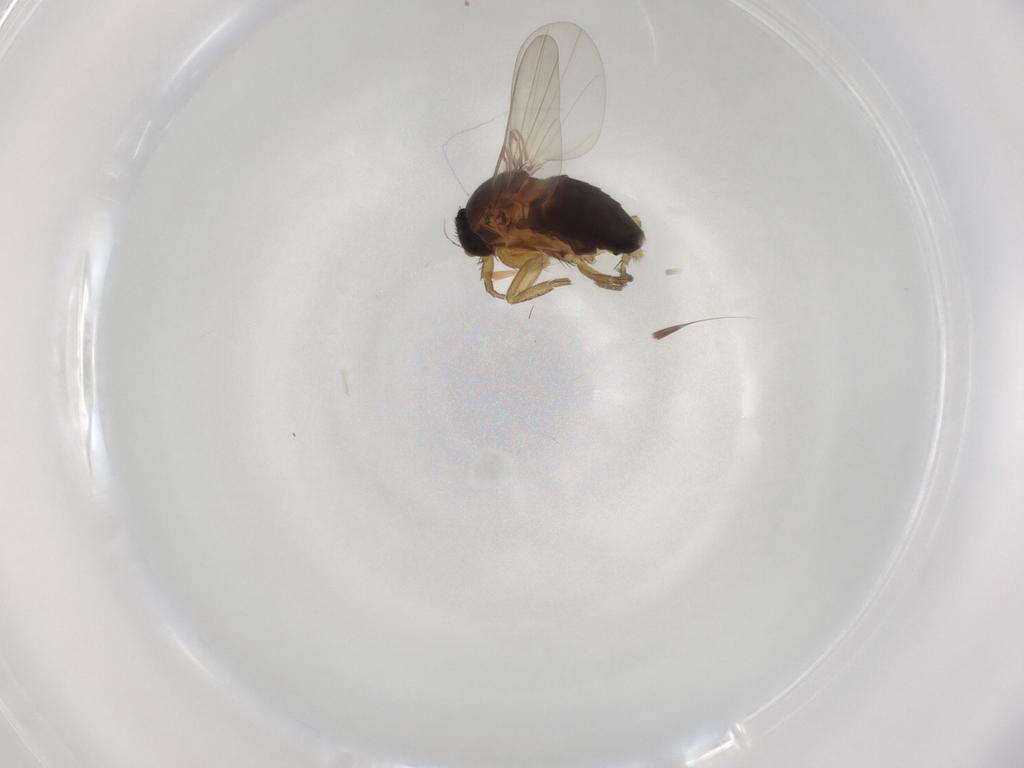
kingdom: Animalia
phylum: Arthropoda
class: Insecta
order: Diptera
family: Phoridae
